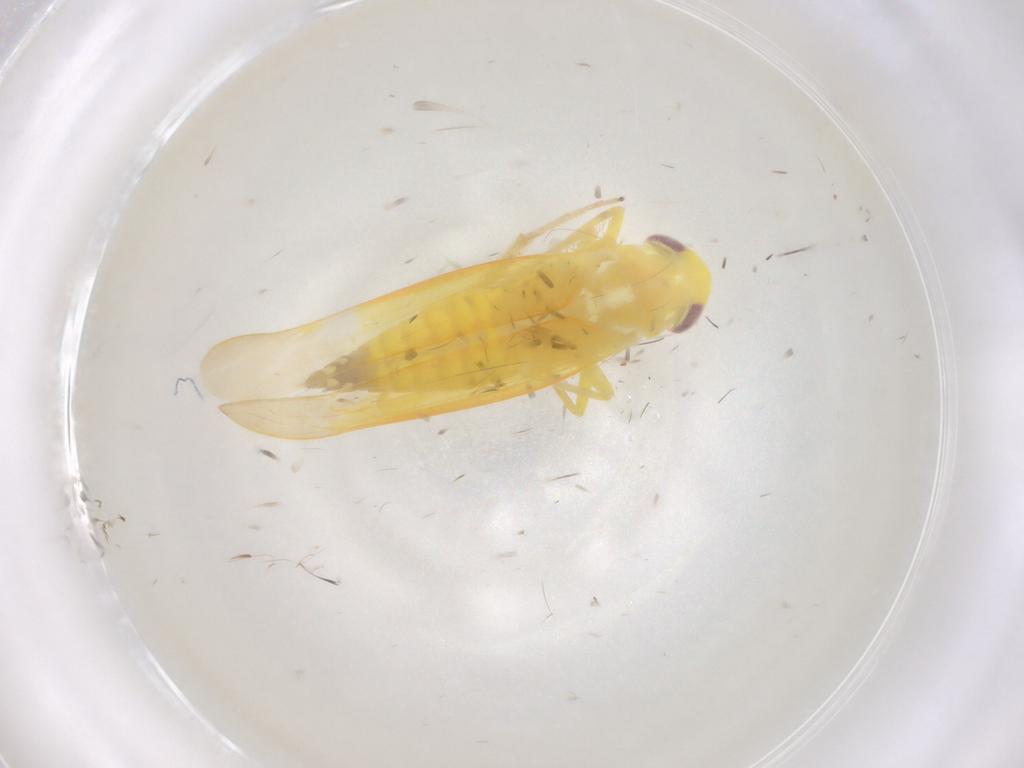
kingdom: Animalia
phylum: Arthropoda
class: Insecta
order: Hemiptera
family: Cicadellidae
